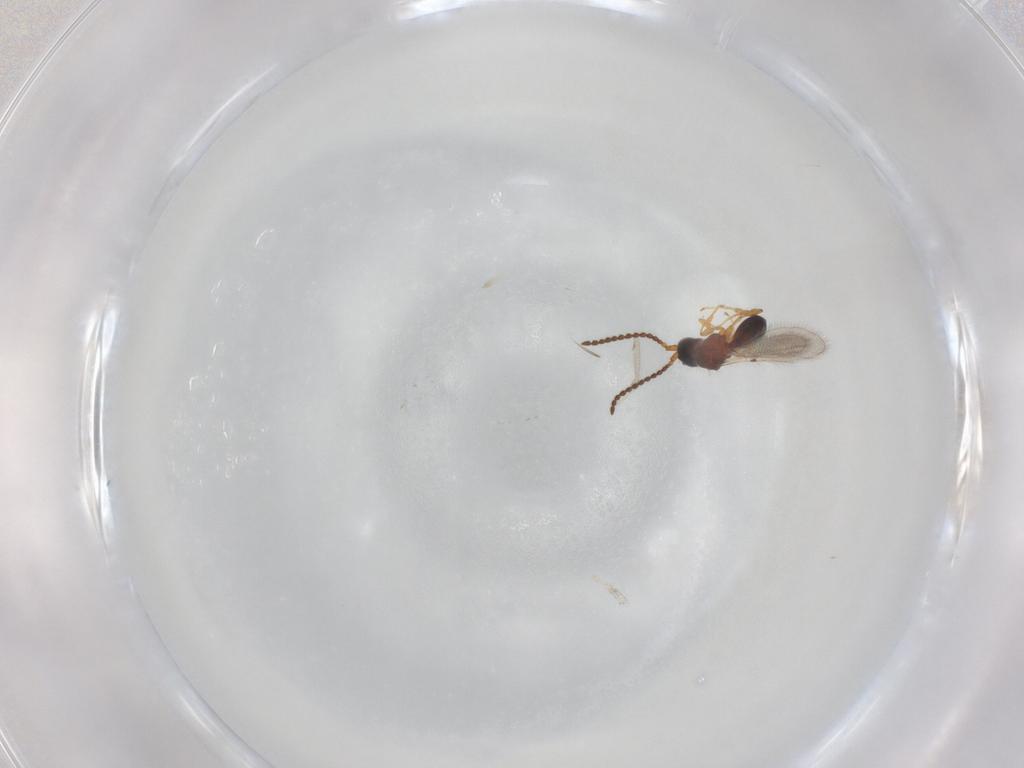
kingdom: Animalia
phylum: Arthropoda
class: Insecta
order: Hymenoptera
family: Diapriidae
